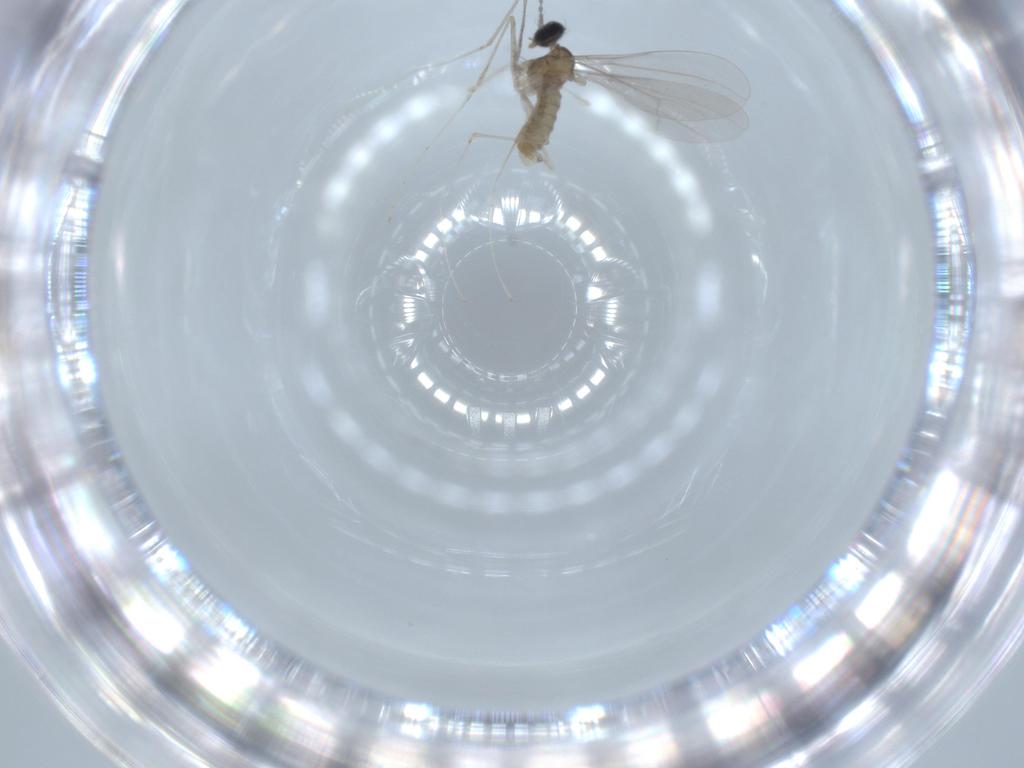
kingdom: Animalia
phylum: Arthropoda
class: Insecta
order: Diptera
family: Cecidomyiidae
